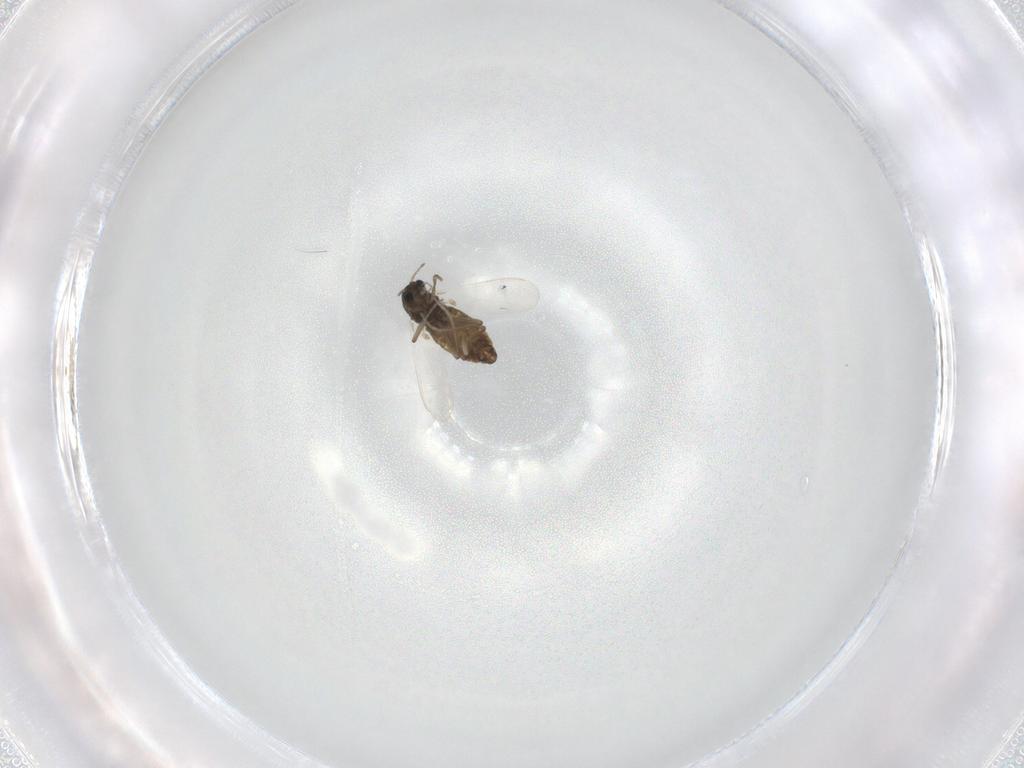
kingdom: Animalia
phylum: Arthropoda
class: Insecta
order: Diptera
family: Chironomidae
